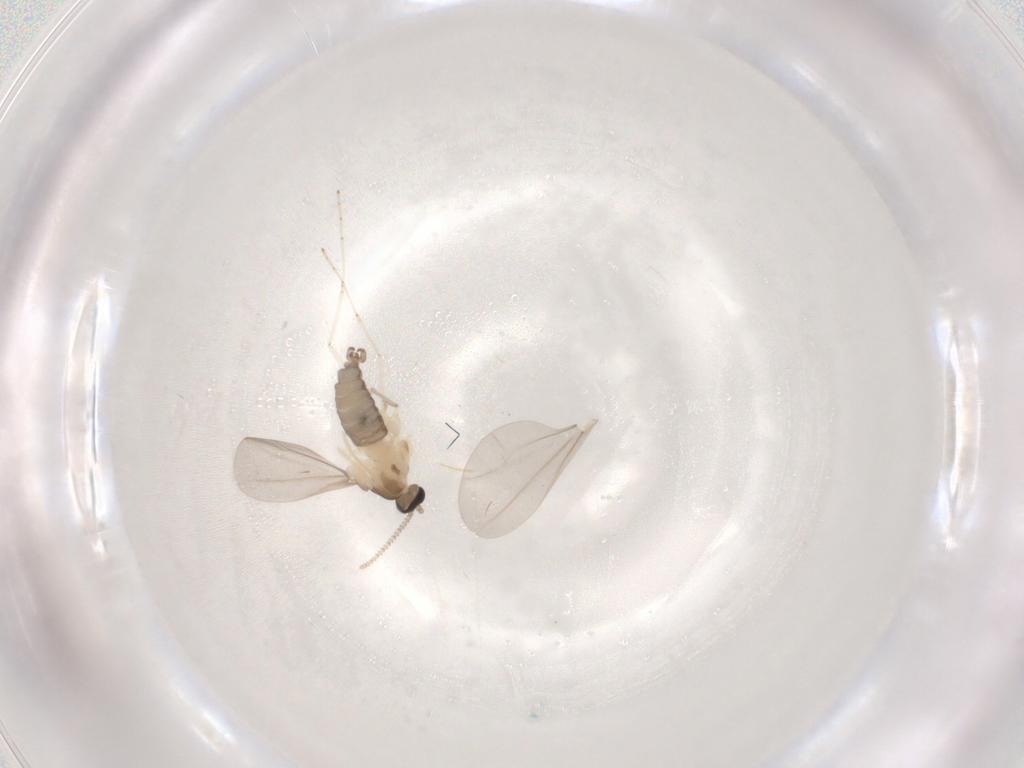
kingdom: Animalia
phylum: Arthropoda
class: Insecta
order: Diptera
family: Cecidomyiidae
